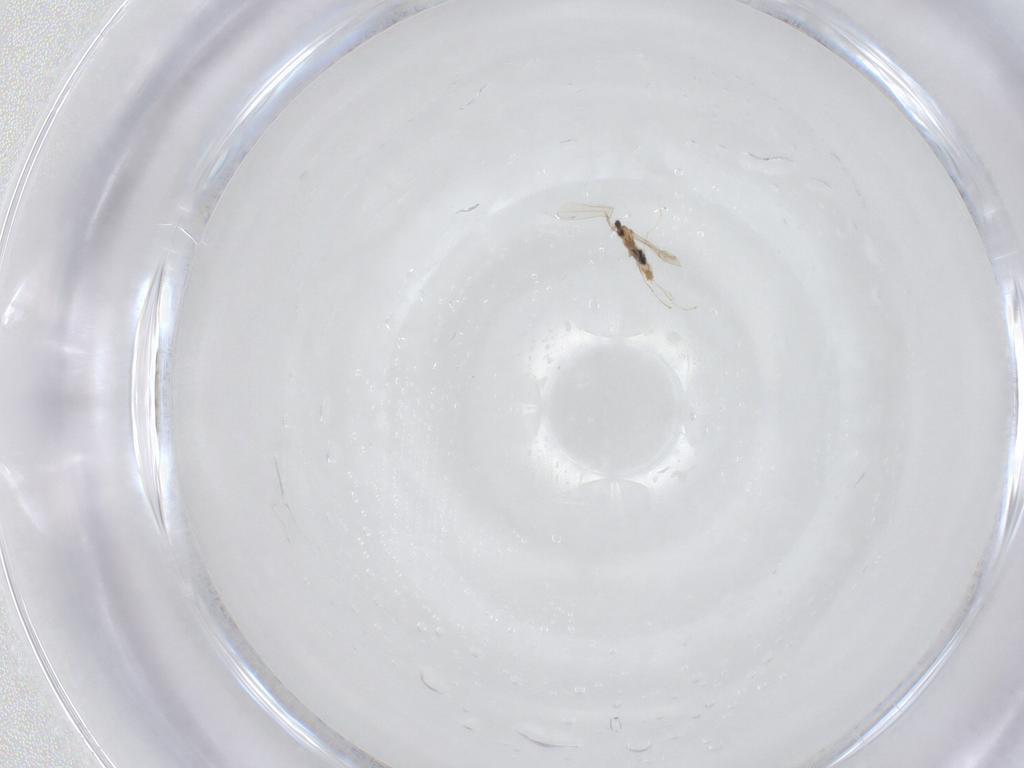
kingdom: Animalia
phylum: Arthropoda
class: Insecta
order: Diptera
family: Cecidomyiidae
